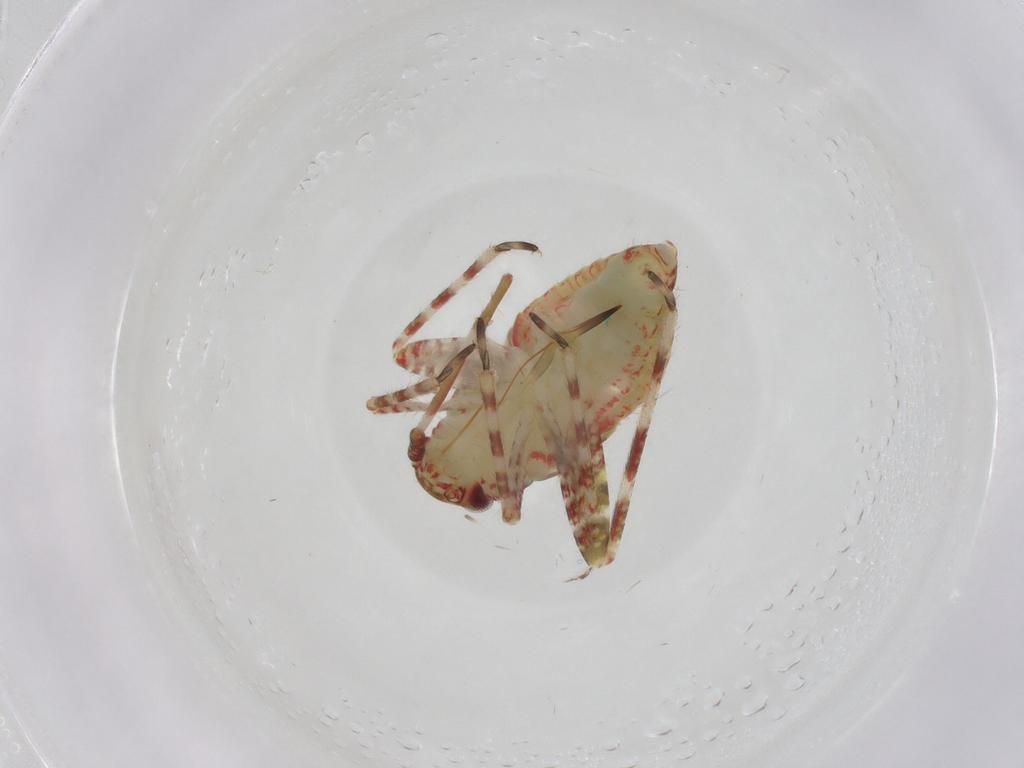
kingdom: Animalia
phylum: Arthropoda
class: Insecta
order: Hemiptera
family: Miridae
